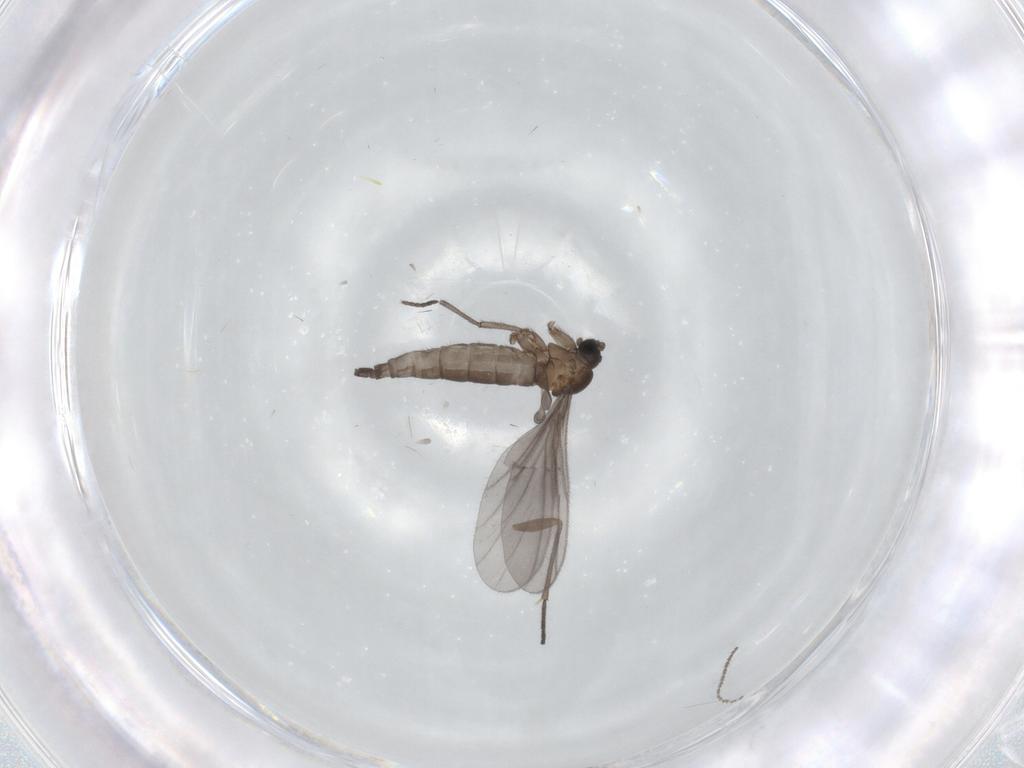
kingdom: Animalia
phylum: Arthropoda
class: Insecta
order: Diptera
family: Sciaridae
